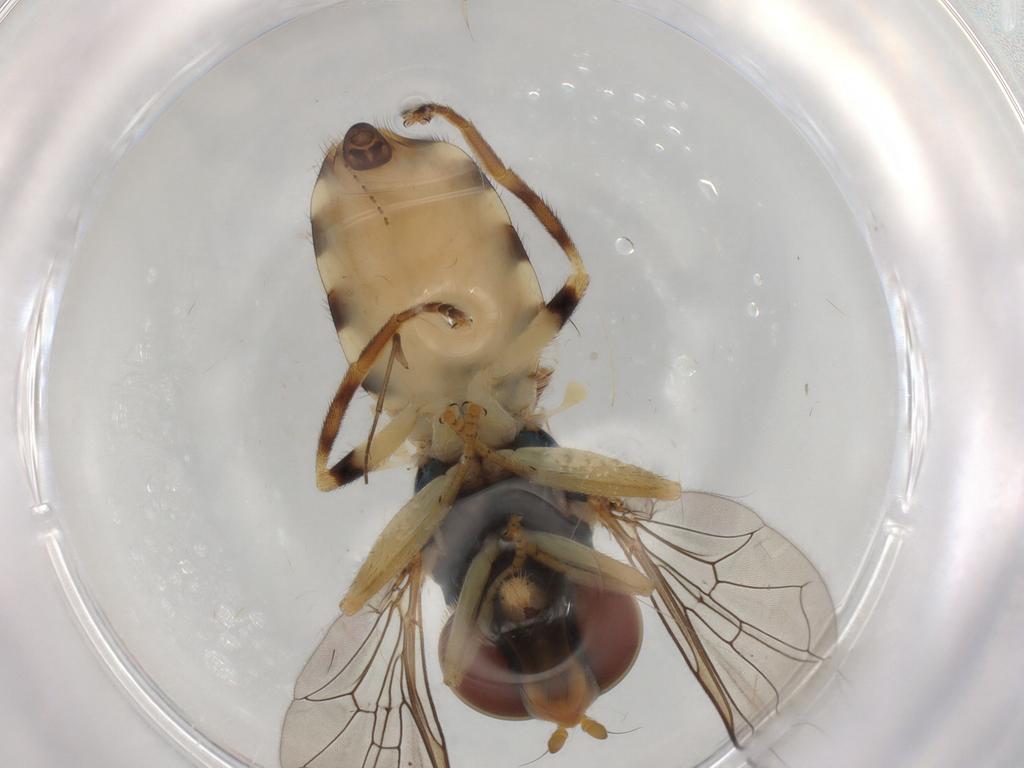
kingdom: Animalia
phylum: Arthropoda
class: Insecta
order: Diptera
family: Syrphidae
